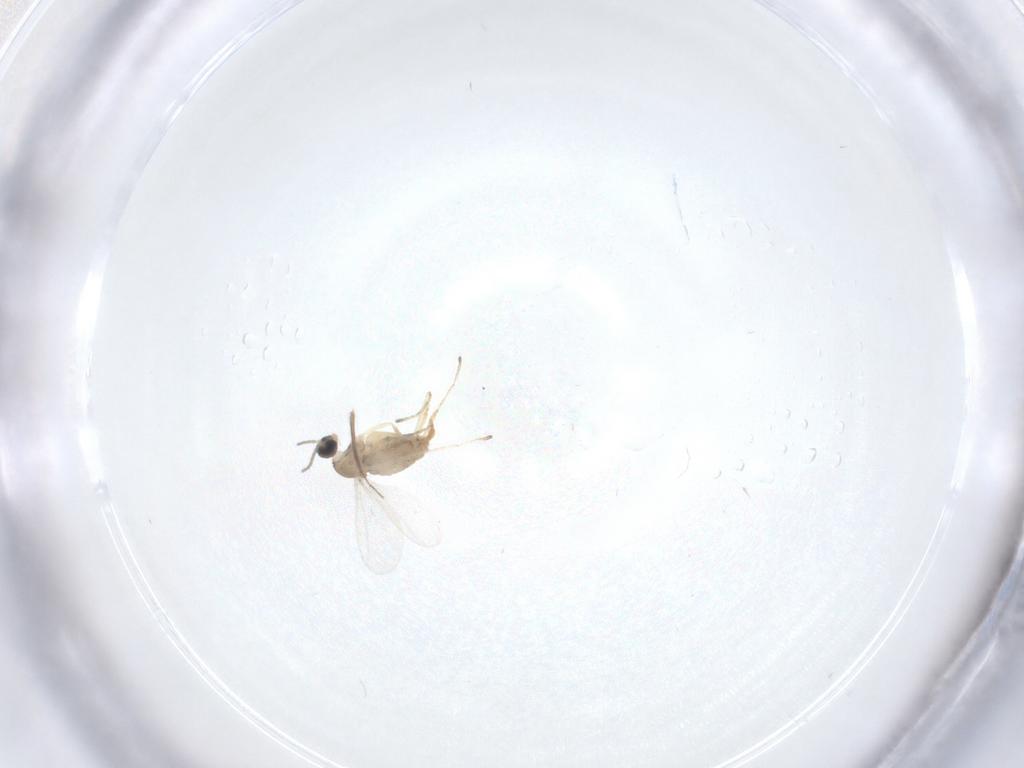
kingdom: Animalia
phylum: Arthropoda
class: Insecta
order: Diptera
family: Cecidomyiidae
